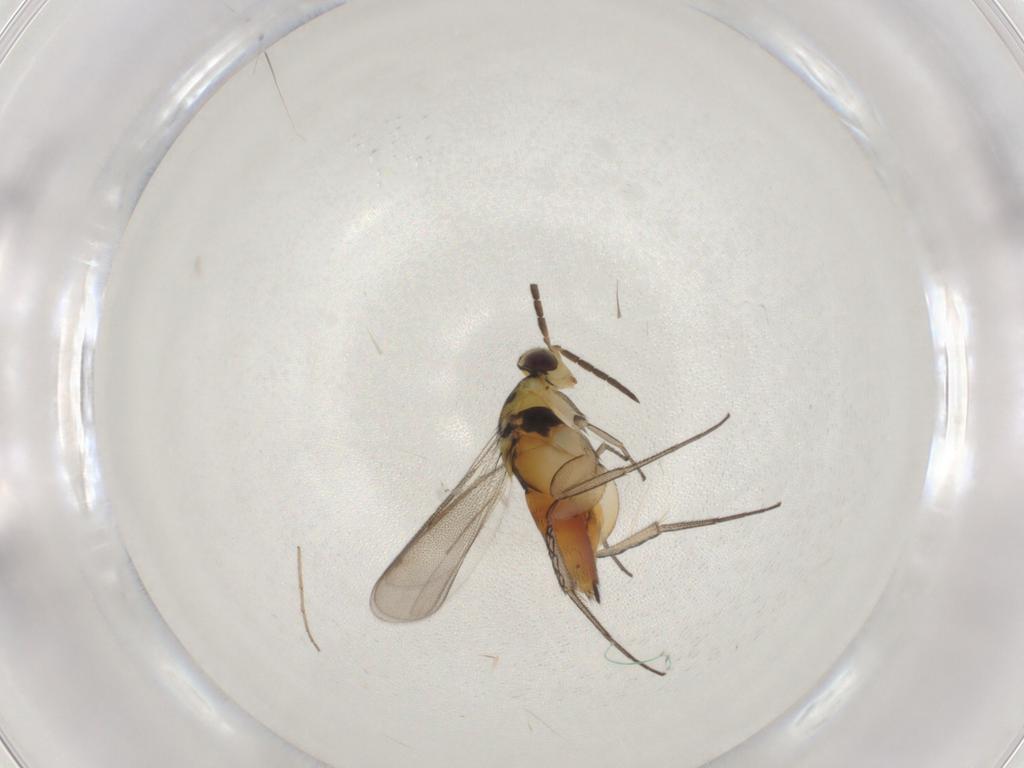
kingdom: Animalia
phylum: Arthropoda
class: Insecta
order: Diptera
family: Chironomidae
